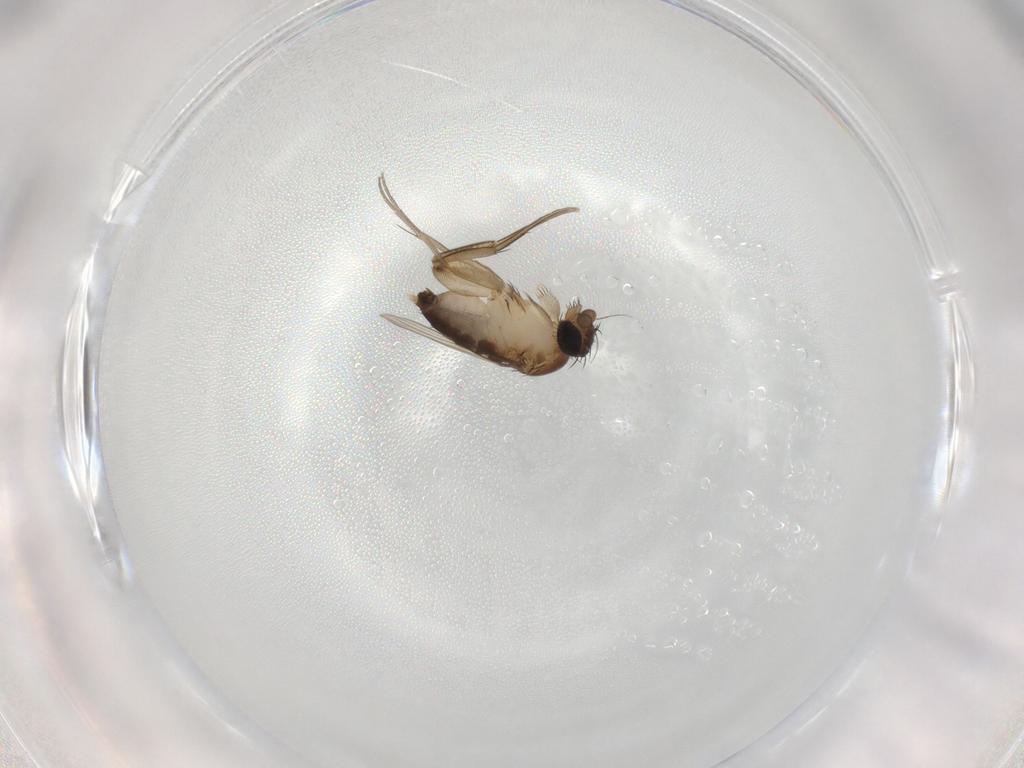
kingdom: Animalia
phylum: Arthropoda
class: Insecta
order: Diptera
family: Phoridae
